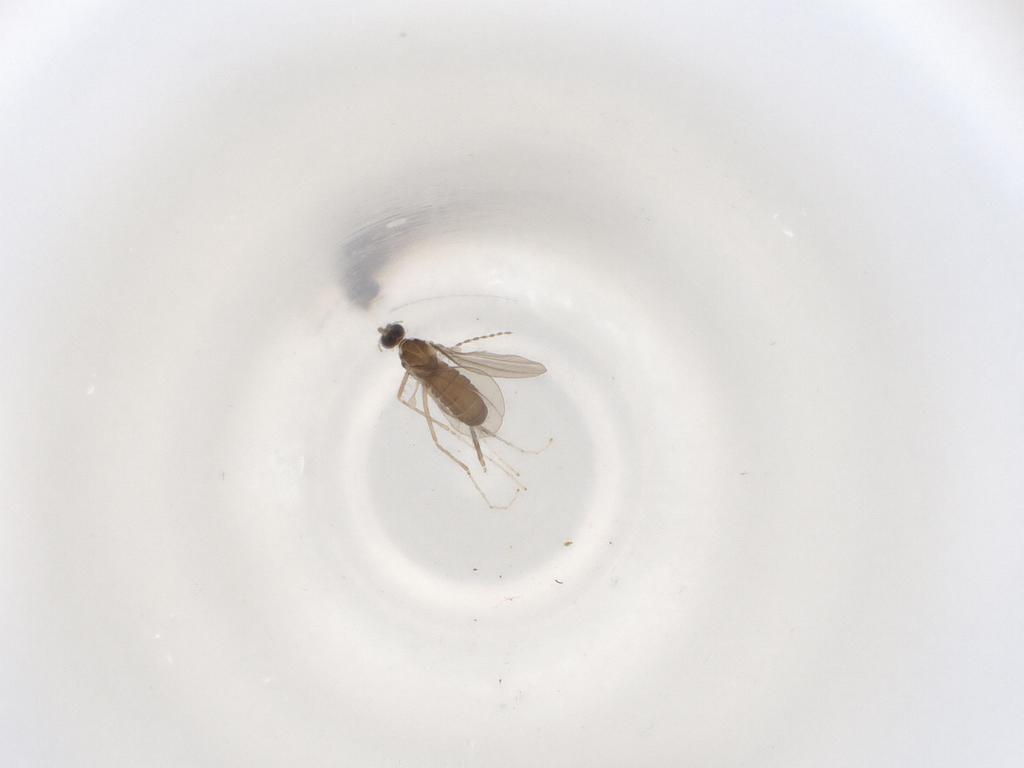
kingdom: Animalia
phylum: Arthropoda
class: Insecta
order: Diptera
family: Cecidomyiidae
